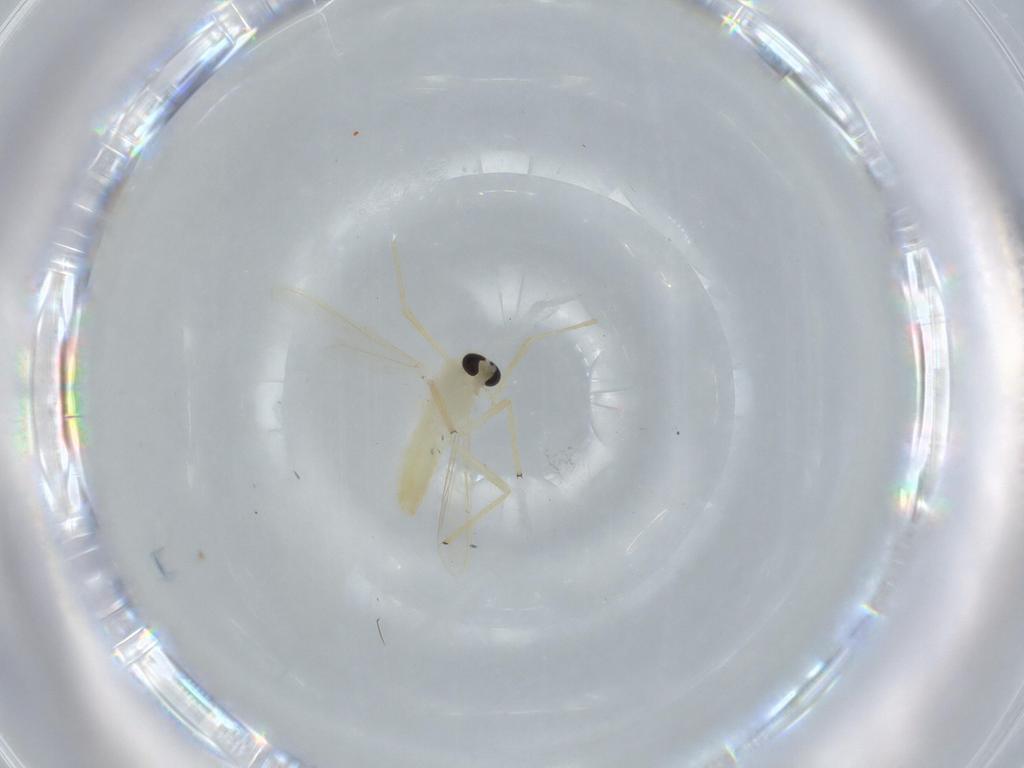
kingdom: Animalia
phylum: Arthropoda
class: Insecta
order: Diptera
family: Chironomidae
